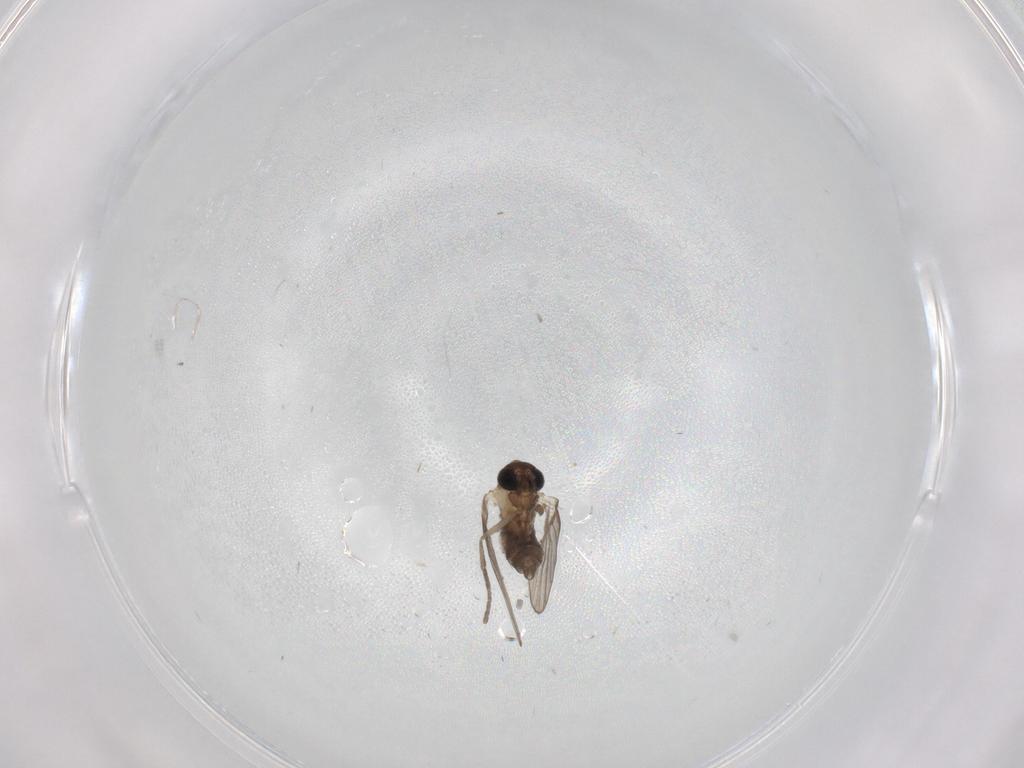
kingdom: Animalia
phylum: Arthropoda
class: Insecta
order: Diptera
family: Psychodidae
